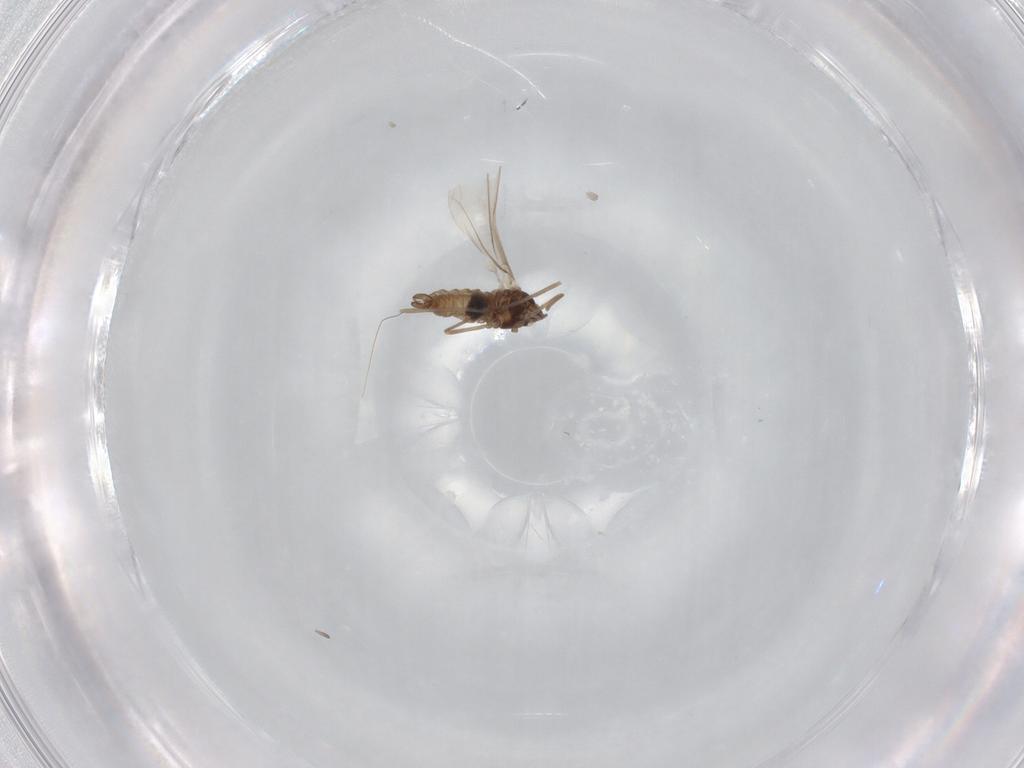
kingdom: Animalia
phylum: Arthropoda
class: Insecta
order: Diptera
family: Cecidomyiidae
